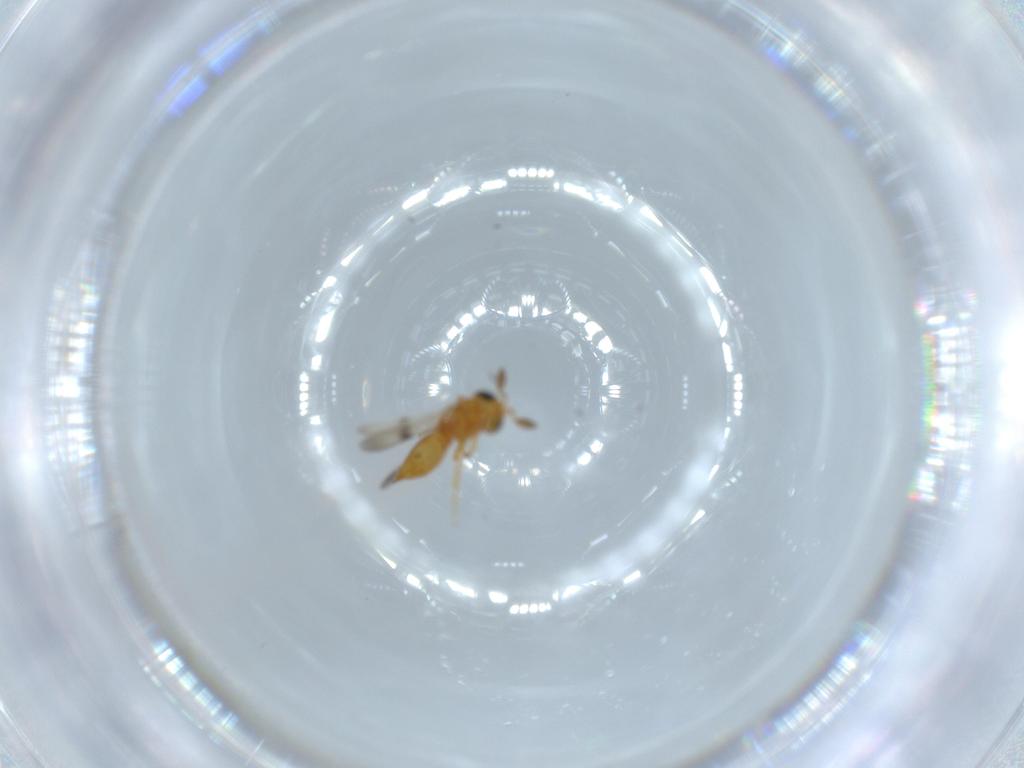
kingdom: Animalia
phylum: Arthropoda
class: Insecta
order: Hymenoptera
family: Scelionidae
